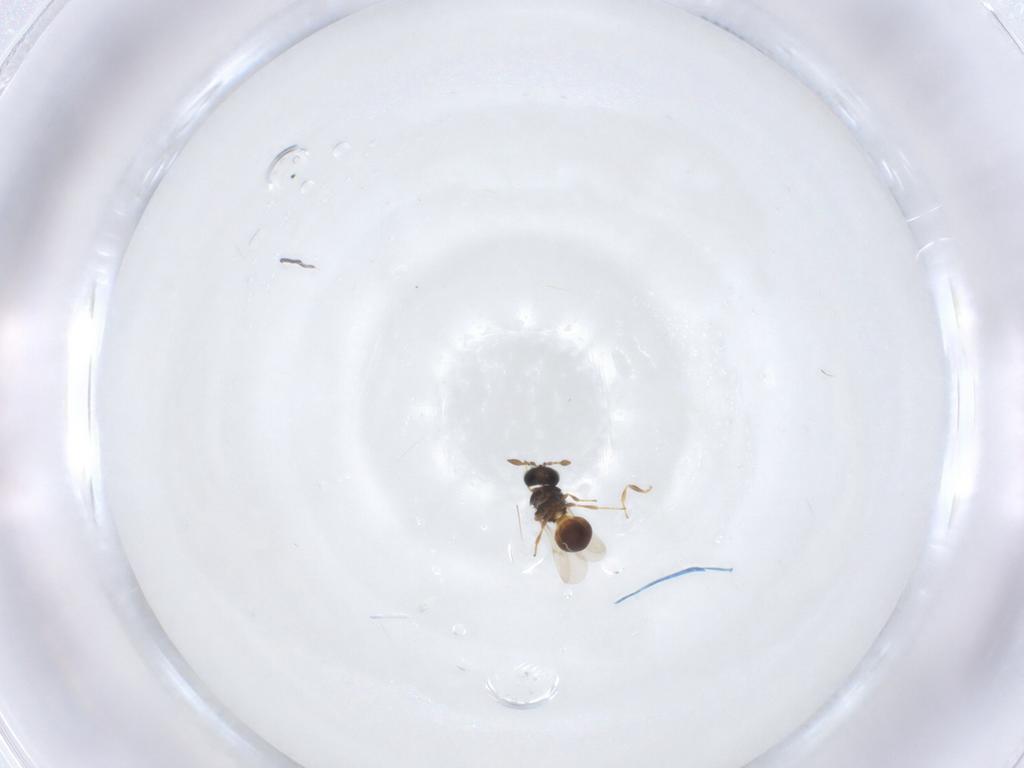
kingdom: Animalia
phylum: Arthropoda
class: Insecta
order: Hymenoptera
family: Scelionidae
